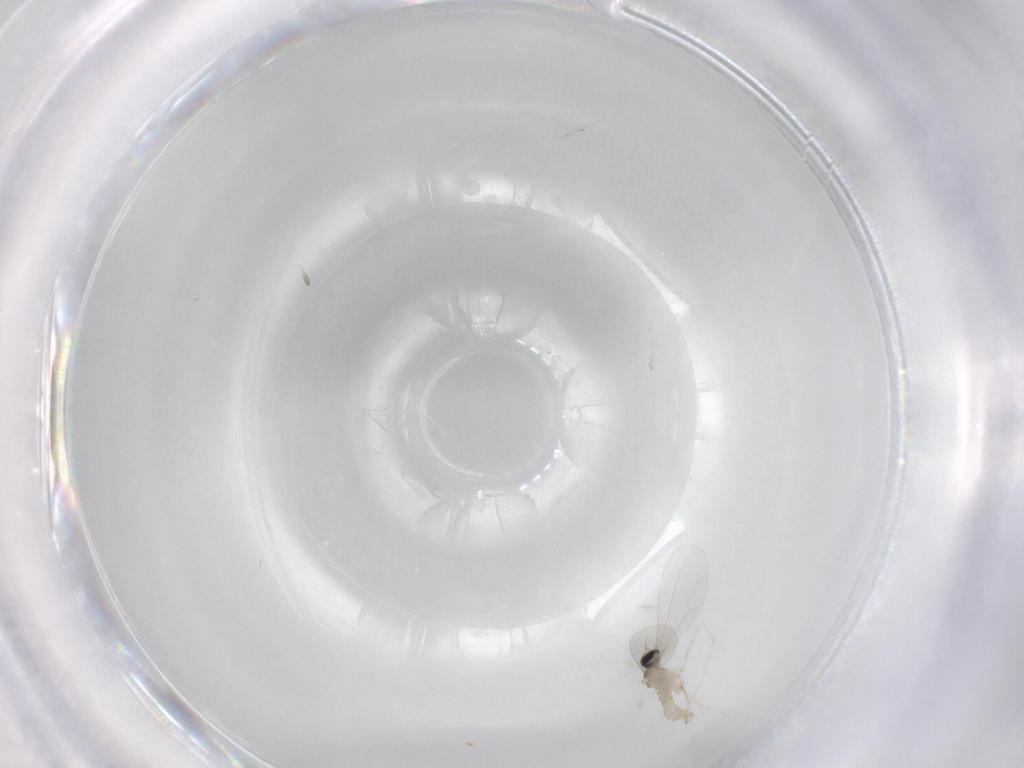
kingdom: Animalia
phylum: Arthropoda
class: Insecta
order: Diptera
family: Cecidomyiidae
